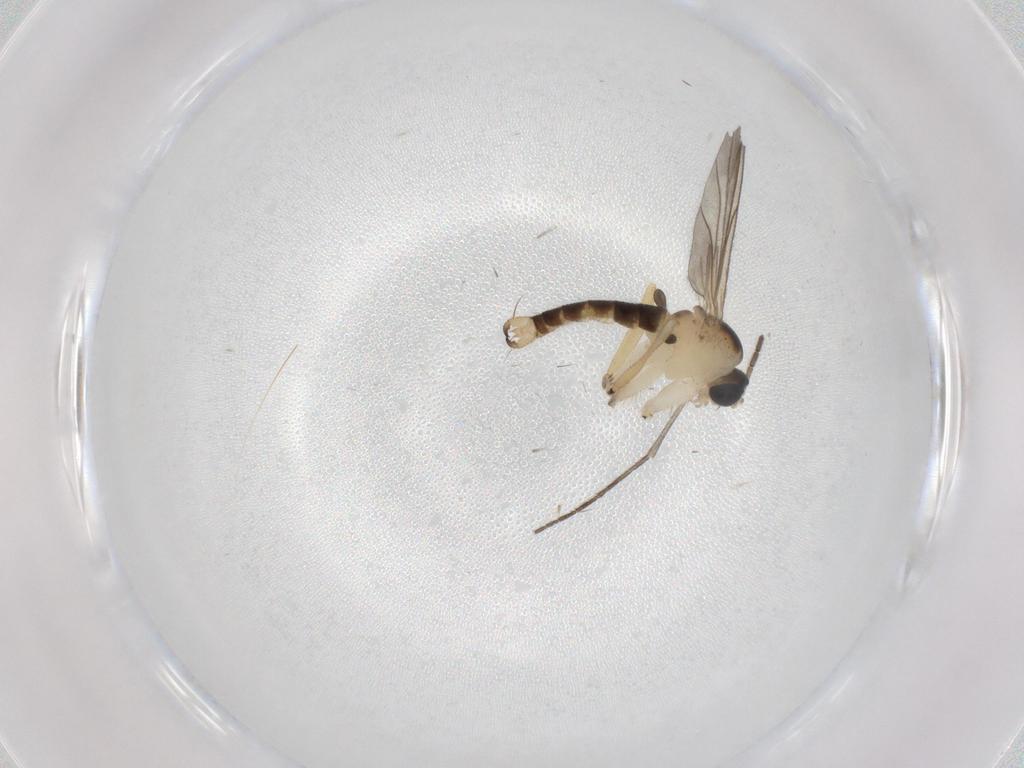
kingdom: Animalia
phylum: Arthropoda
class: Insecta
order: Diptera
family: Sciaridae
